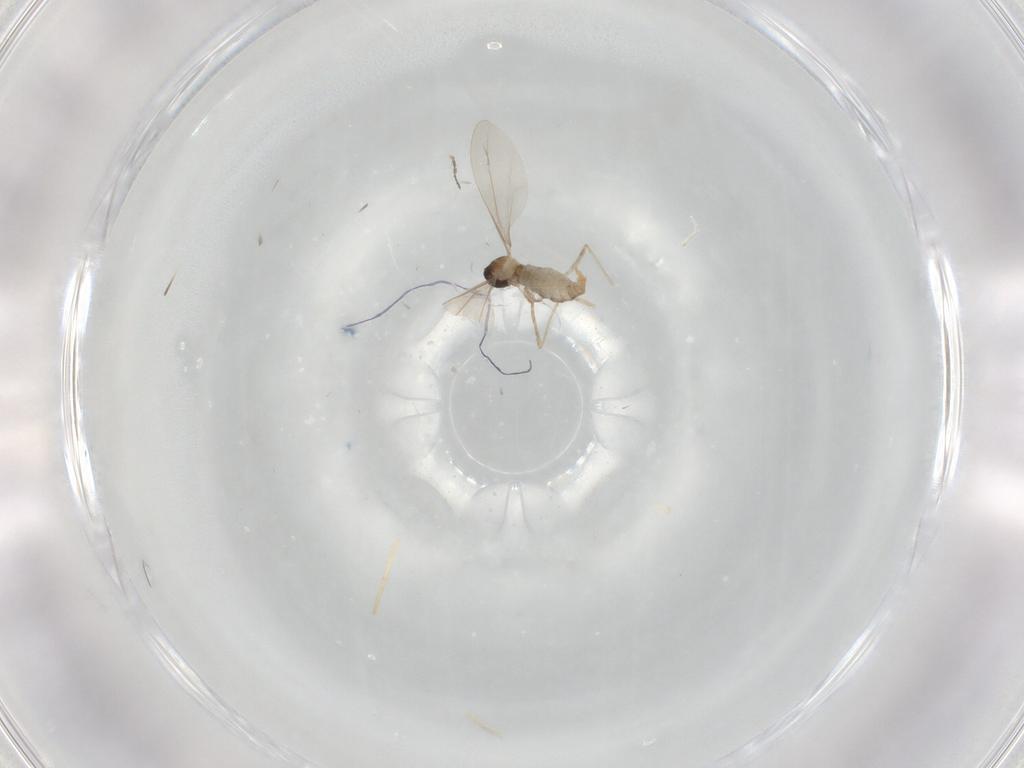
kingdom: Animalia
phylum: Arthropoda
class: Insecta
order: Diptera
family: Cecidomyiidae
